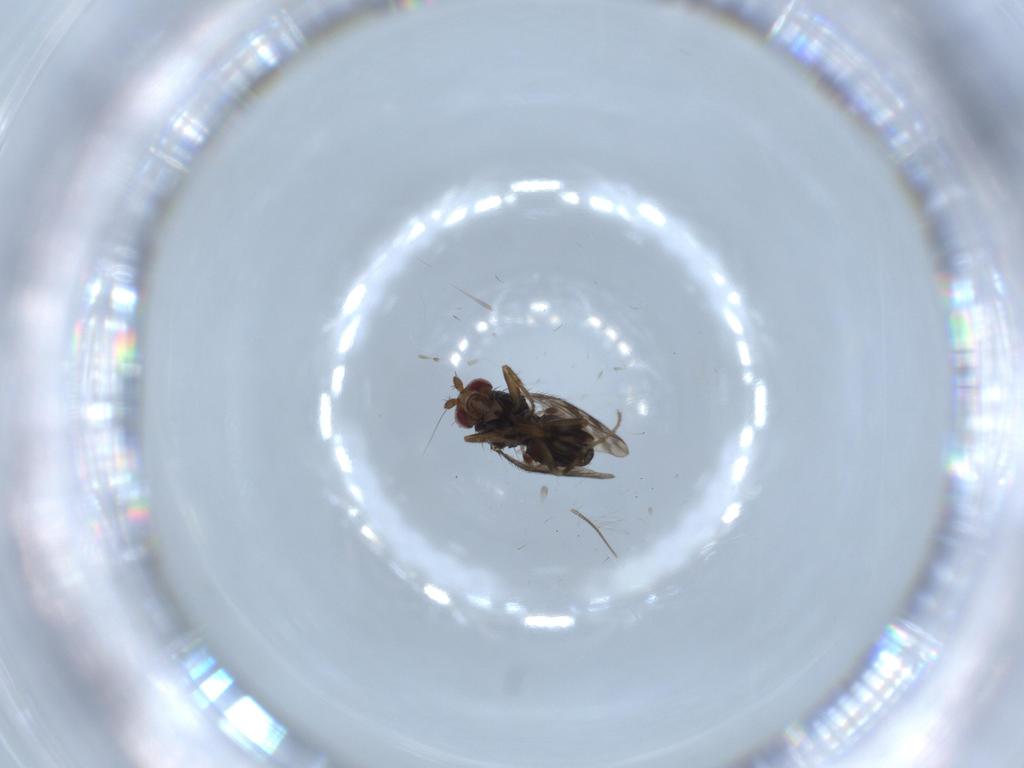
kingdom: Animalia
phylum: Arthropoda
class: Insecta
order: Diptera
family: Sphaeroceridae
